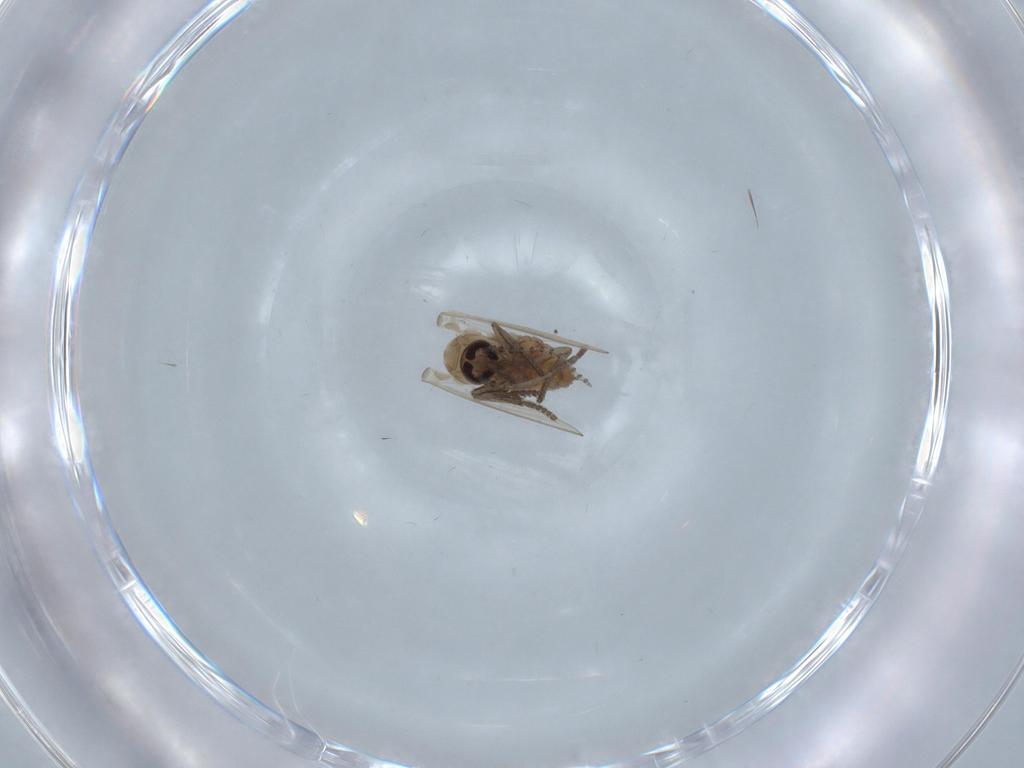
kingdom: Animalia
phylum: Arthropoda
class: Insecta
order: Diptera
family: Psychodidae
